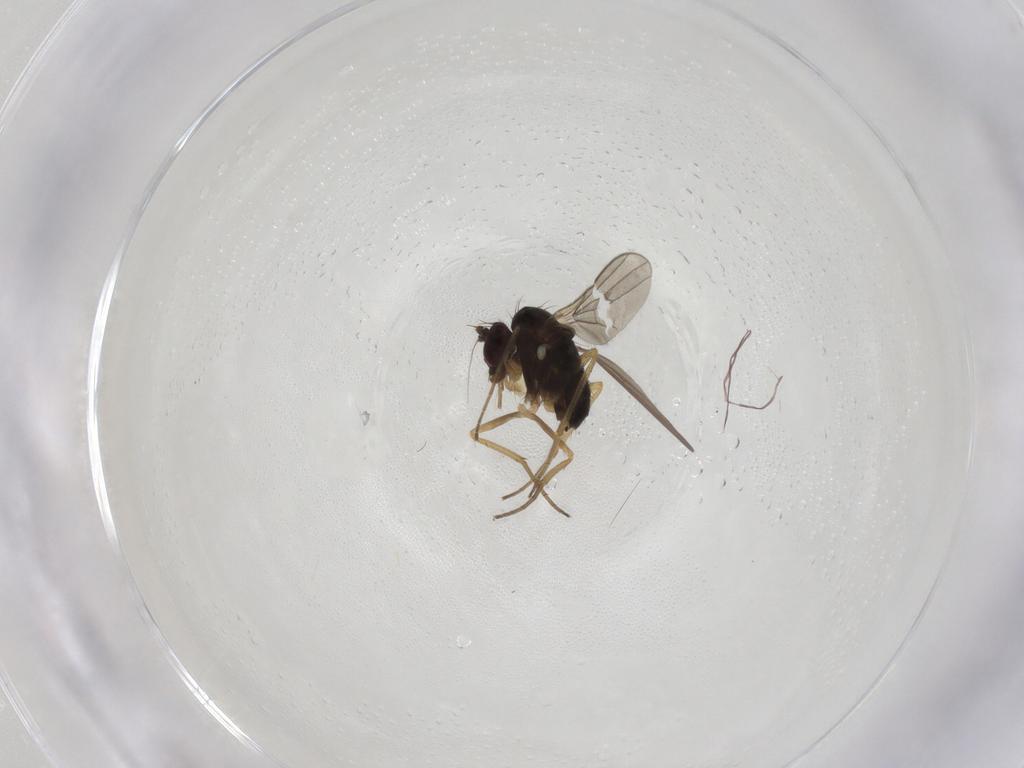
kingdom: Animalia
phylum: Arthropoda
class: Insecta
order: Diptera
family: Dolichopodidae
